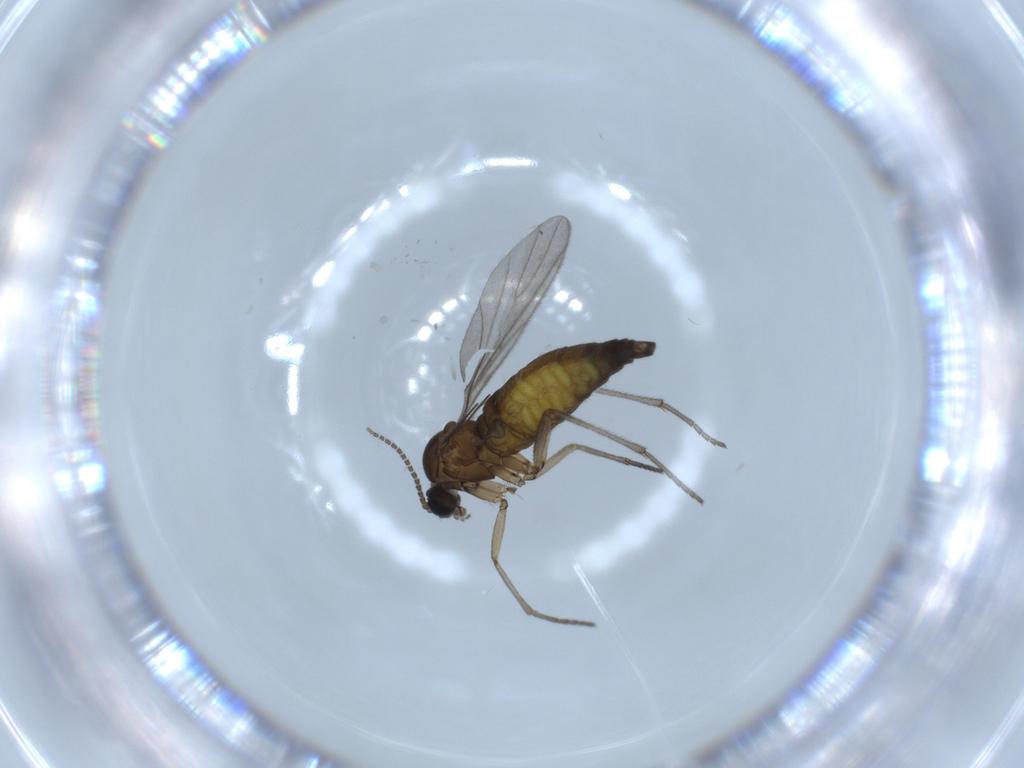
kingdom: Animalia
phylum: Arthropoda
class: Insecta
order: Diptera
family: Sciaridae
